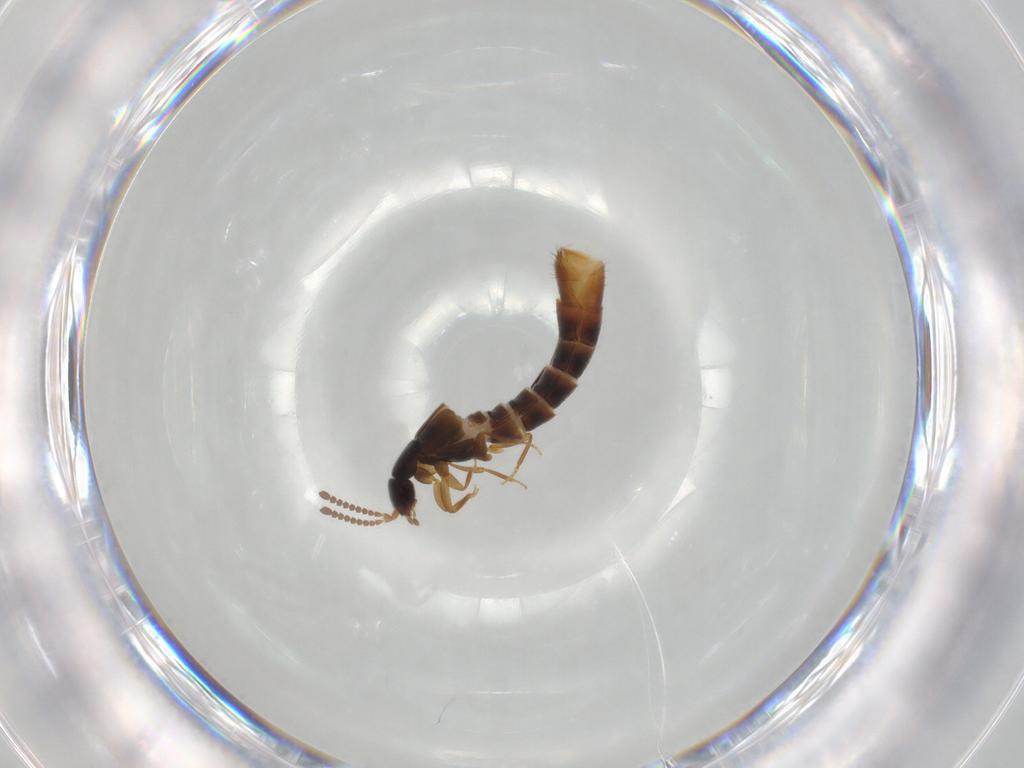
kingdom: Animalia
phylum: Arthropoda
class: Insecta
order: Coleoptera
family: Staphylinidae
